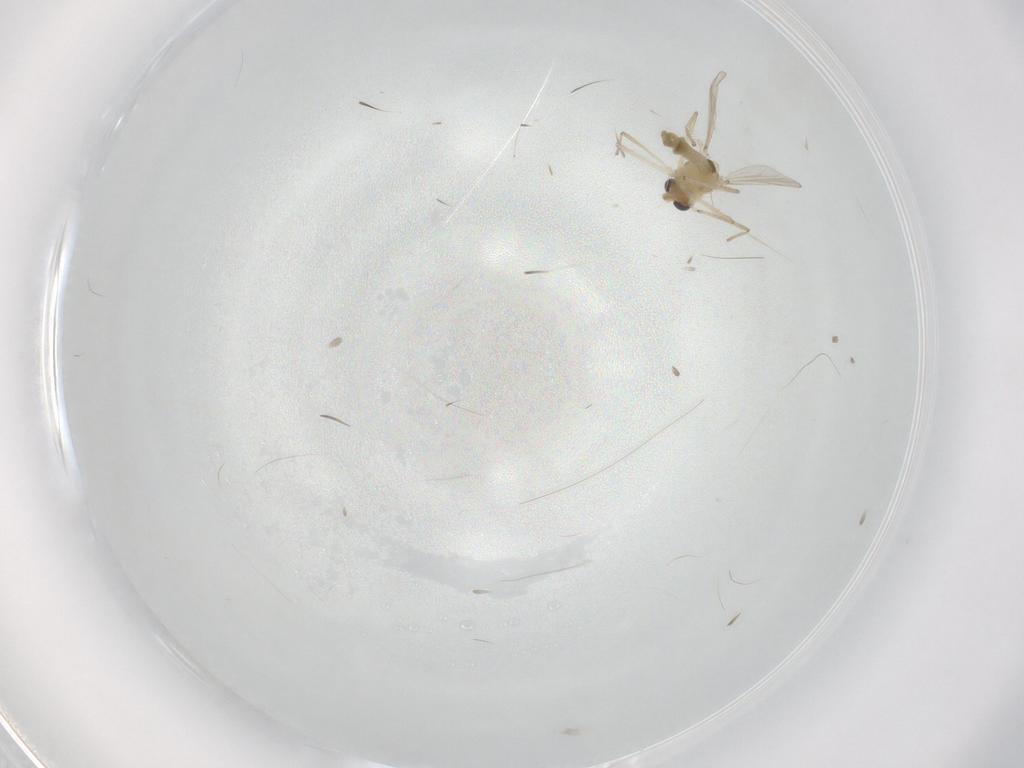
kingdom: Animalia
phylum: Arthropoda
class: Insecta
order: Diptera
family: Chironomidae
